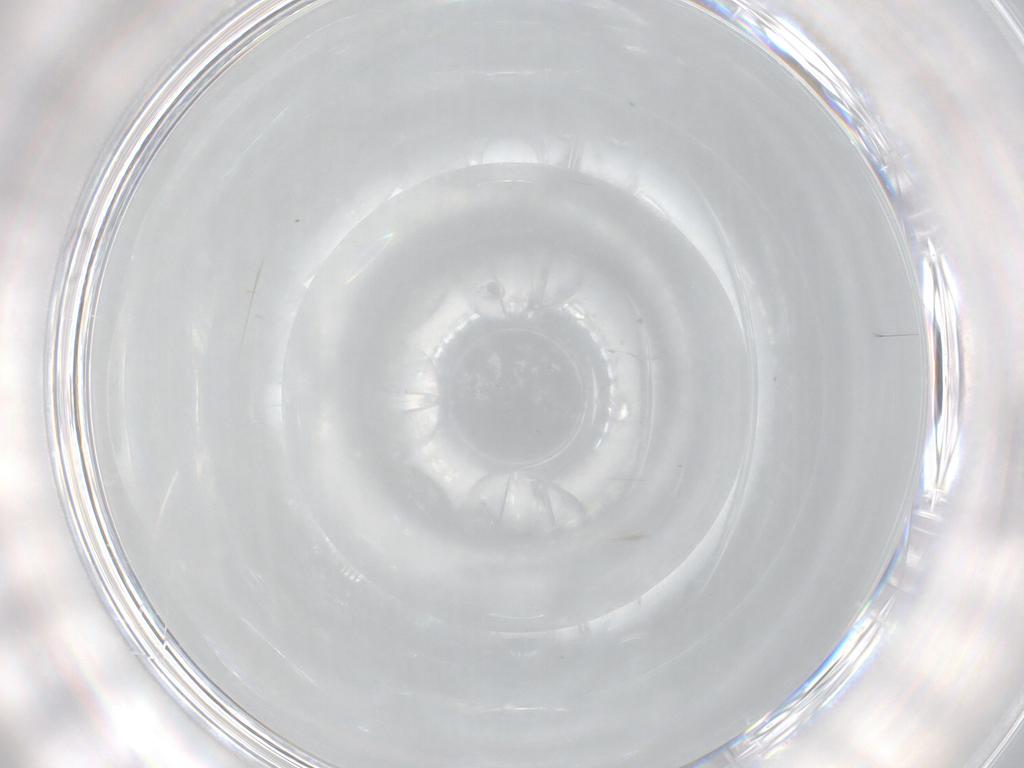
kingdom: Animalia
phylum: Arthropoda
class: Insecta
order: Hymenoptera
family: Scelionidae
